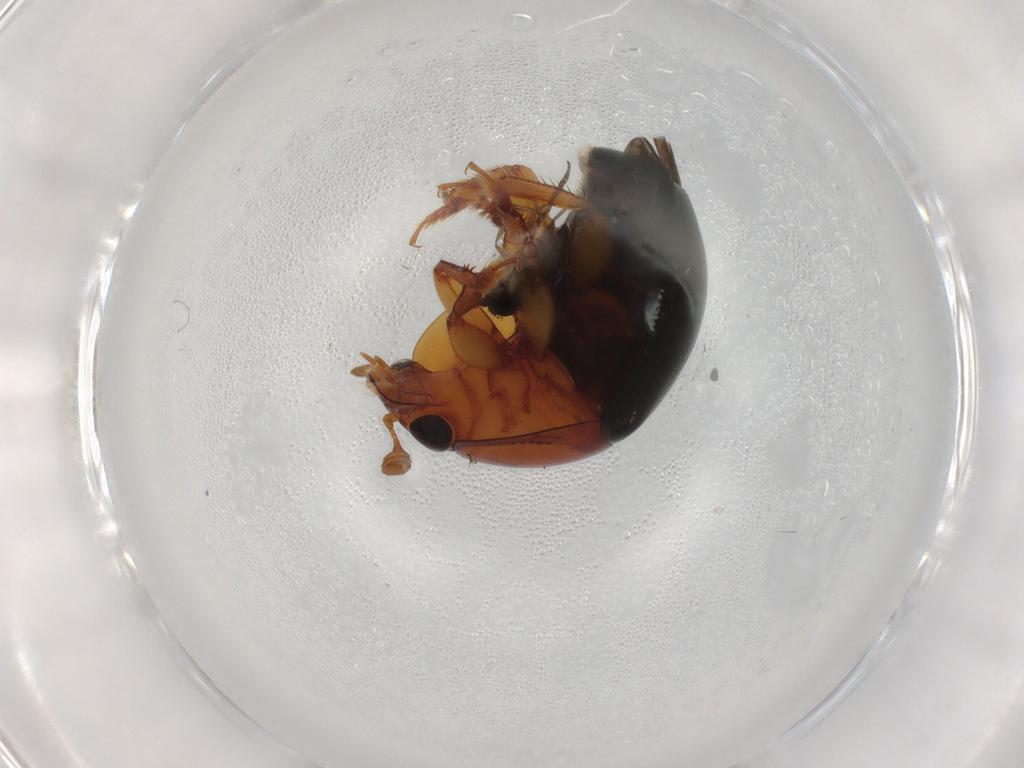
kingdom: Animalia
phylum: Arthropoda
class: Insecta
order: Coleoptera
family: Nitidulidae
